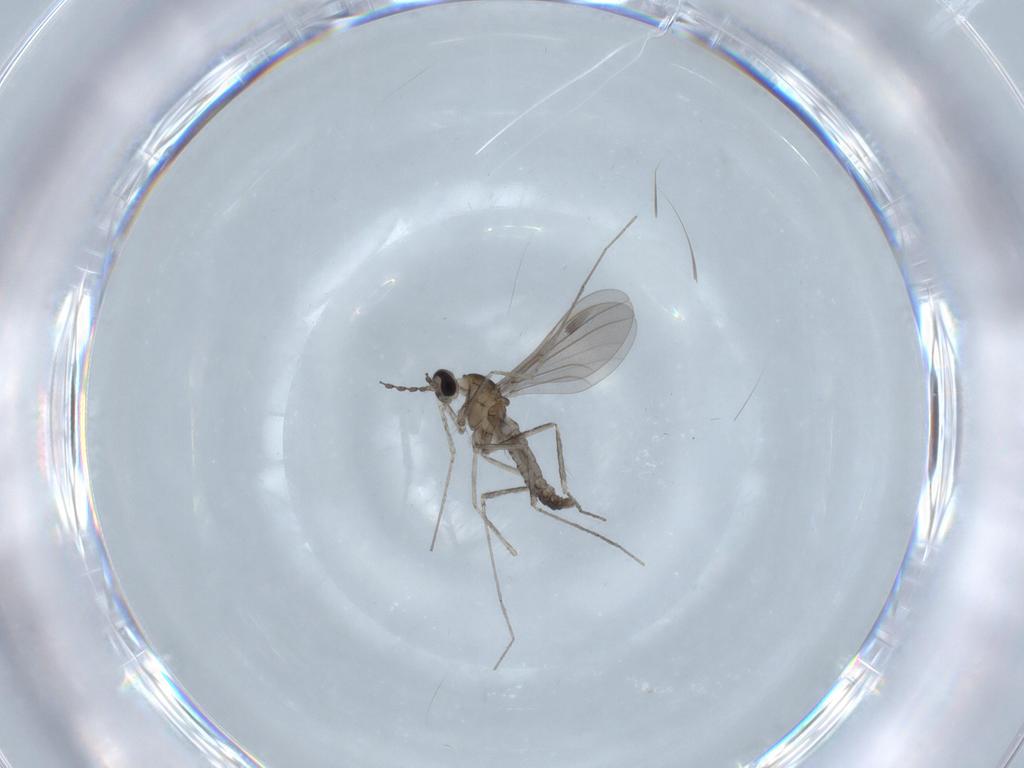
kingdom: Animalia
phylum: Arthropoda
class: Insecta
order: Diptera
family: Cecidomyiidae
